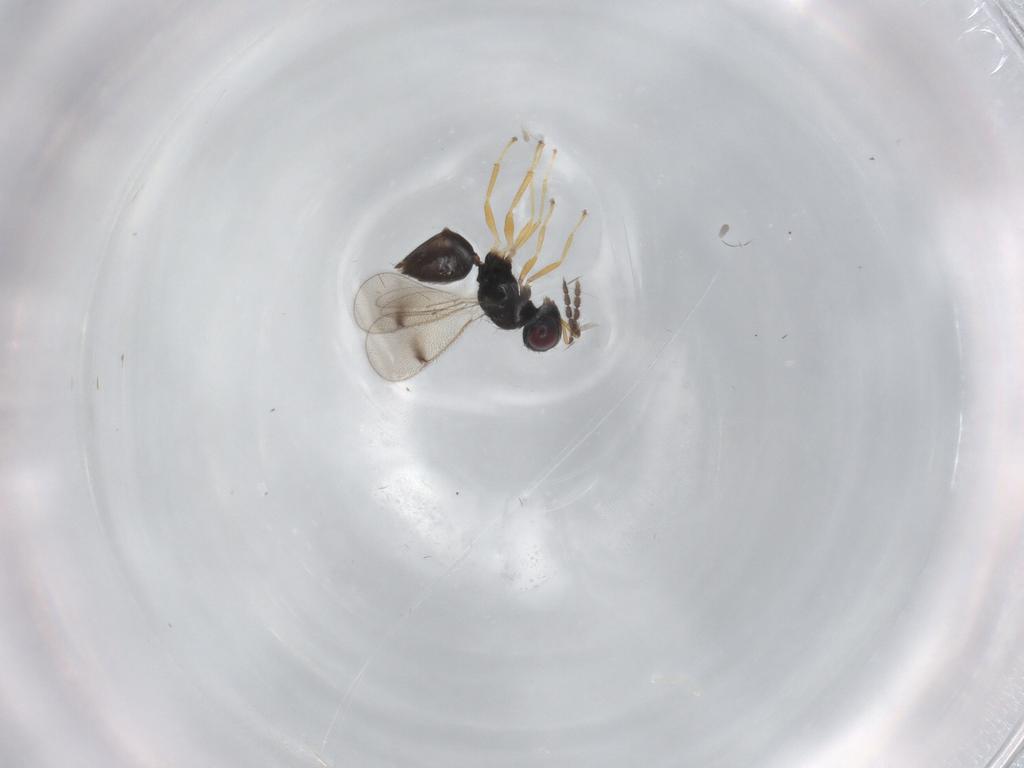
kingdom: Animalia
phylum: Arthropoda
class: Insecta
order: Hymenoptera
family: Eulophidae
